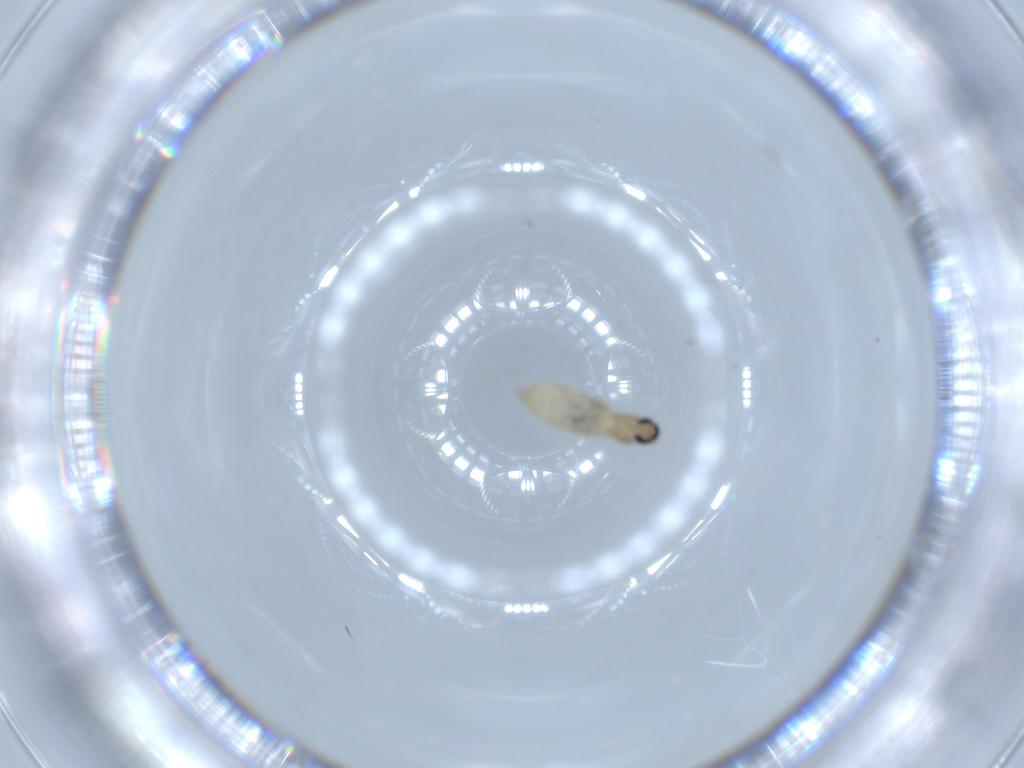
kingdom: Animalia
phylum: Arthropoda
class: Insecta
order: Diptera
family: Cecidomyiidae
